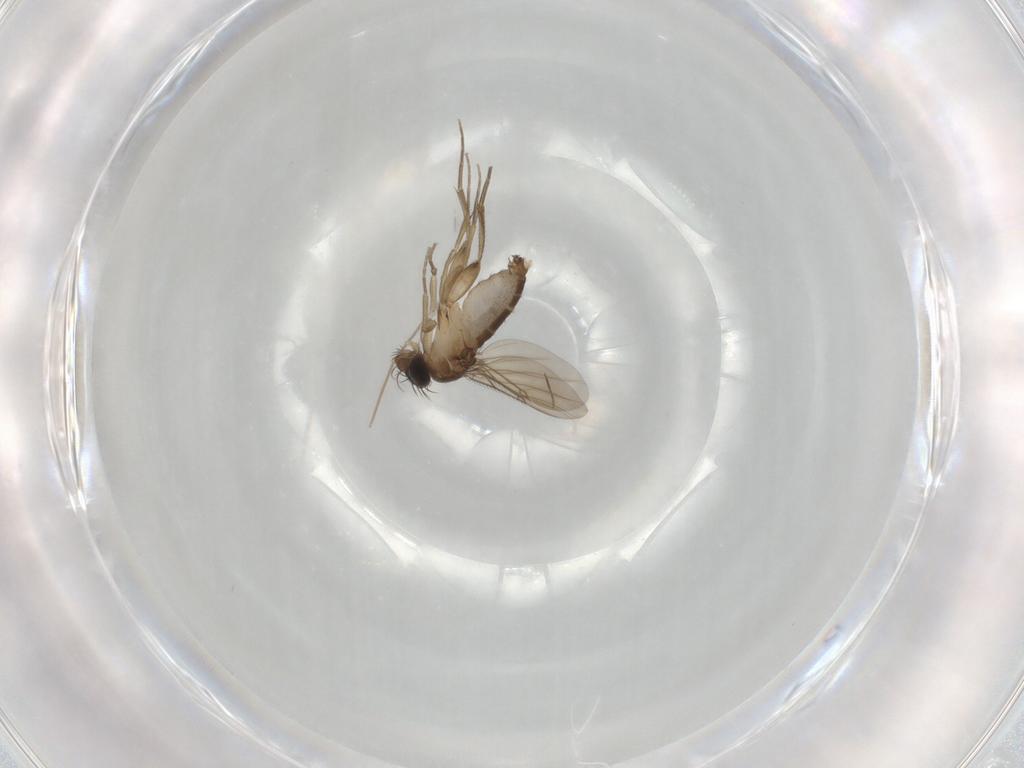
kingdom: Animalia
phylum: Arthropoda
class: Insecta
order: Diptera
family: Phoridae
